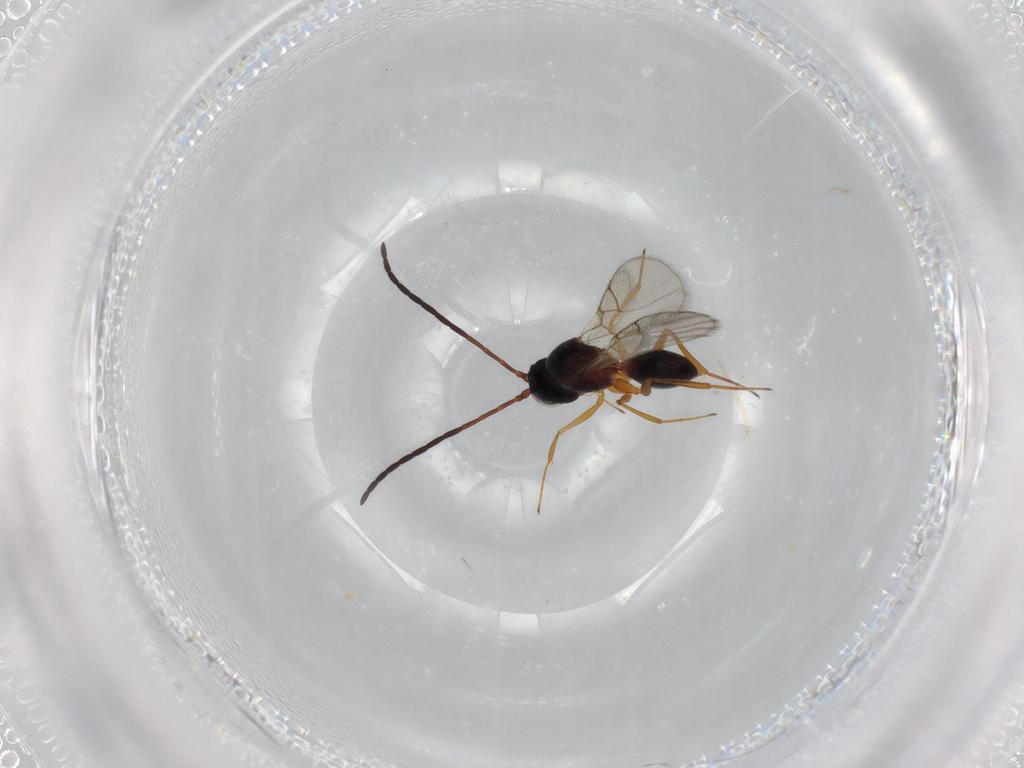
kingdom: Animalia
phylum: Arthropoda
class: Insecta
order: Hymenoptera
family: Figitidae
